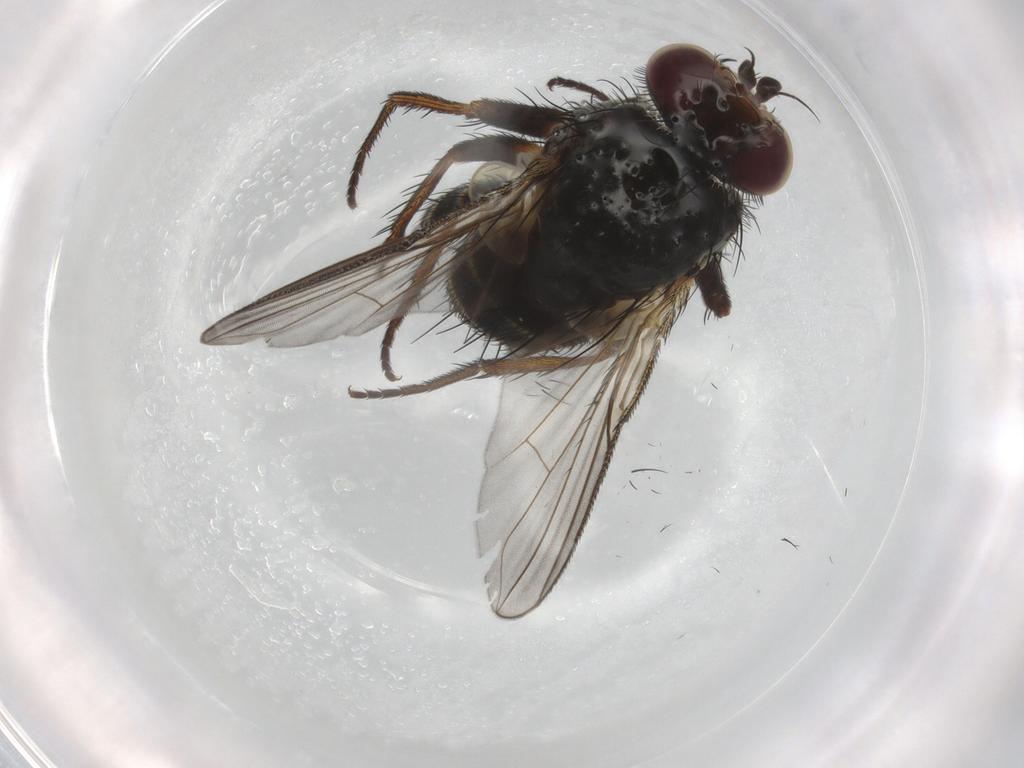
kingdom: Animalia
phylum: Arthropoda
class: Insecta
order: Diptera
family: Tachinidae
